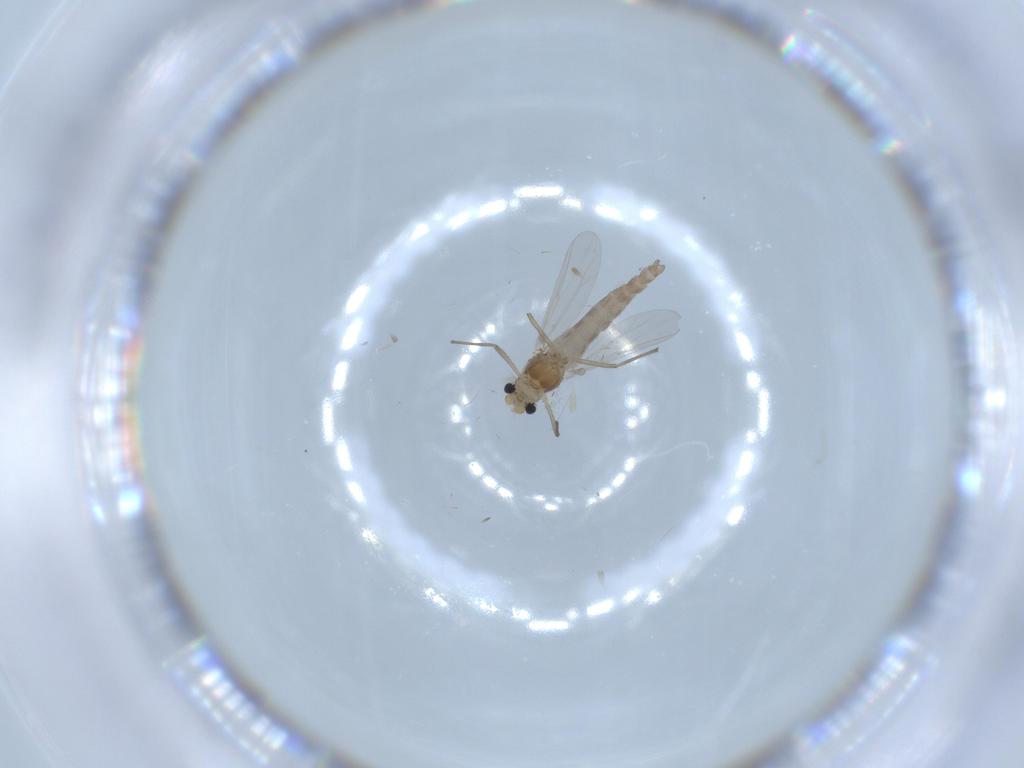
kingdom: Animalia
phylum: Arthropoda
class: Insecta
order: Diptera
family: Chironomidae
